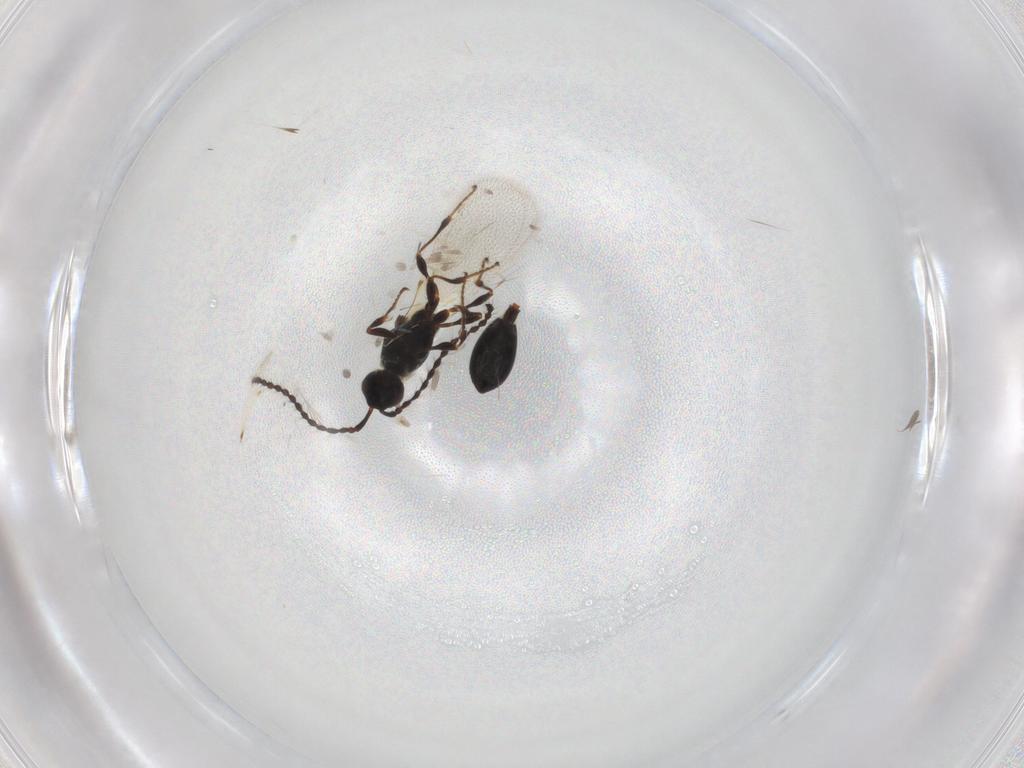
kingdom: Animalia
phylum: Arthropoda
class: Insecta
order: Hymenoptera
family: Diapriidae
